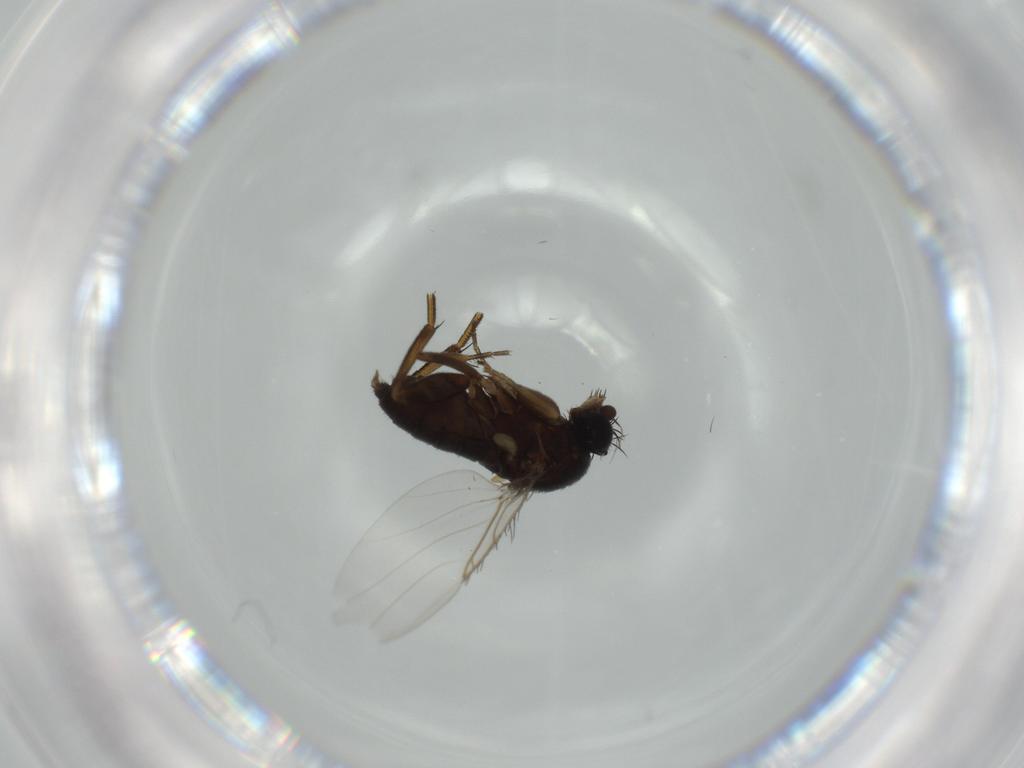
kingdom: Animalia
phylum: Arthropoda
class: Insecta
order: Diptera
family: Phoridae
